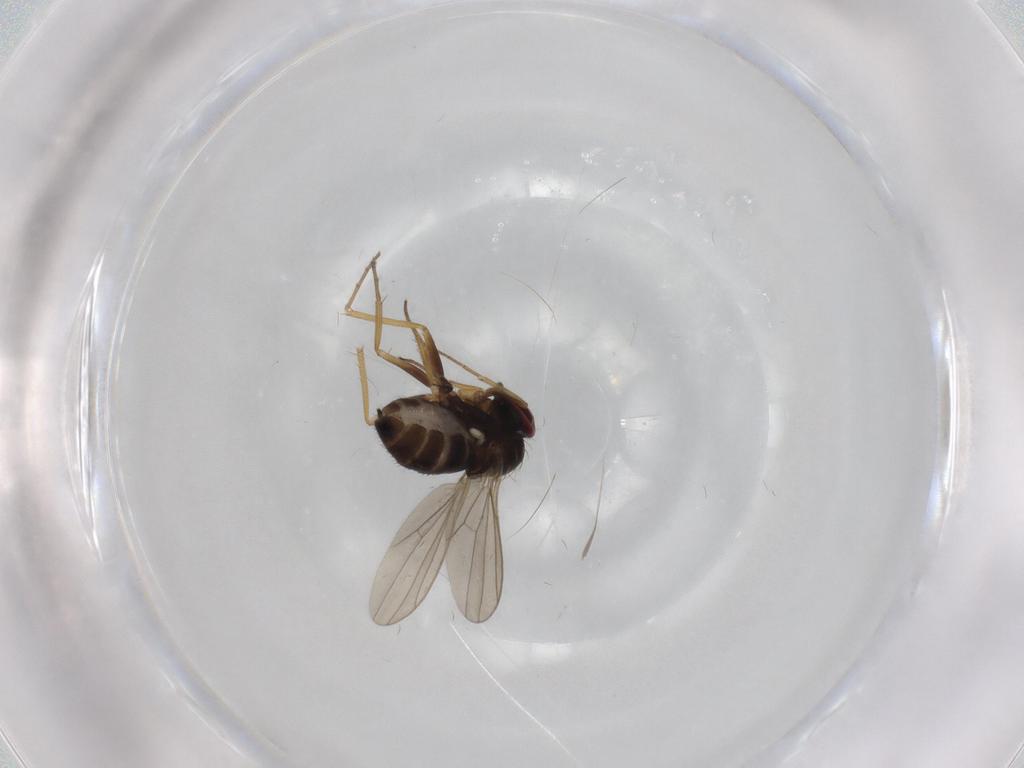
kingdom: Animalia
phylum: Arthropoda
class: Insecta
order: Diptera
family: Dolichopodidae
